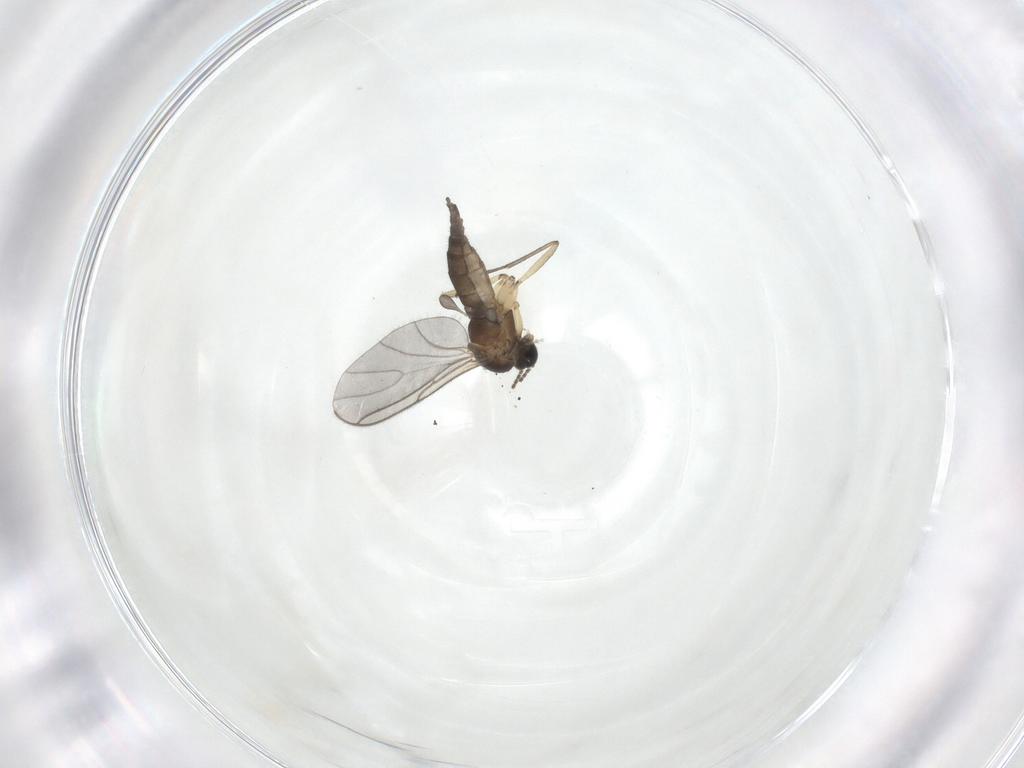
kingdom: Animalia
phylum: Arthropoda
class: Insecta
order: Diptera
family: Sciaridae
